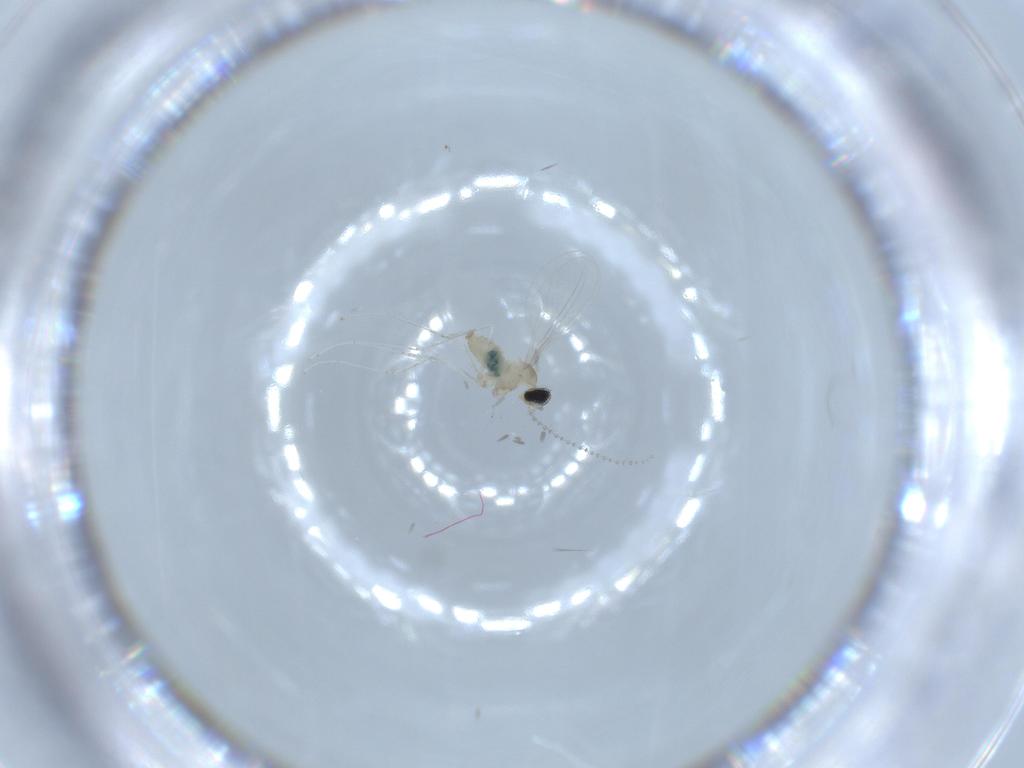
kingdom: Animalia
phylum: Arthropoda
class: Insecta
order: Diptera
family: Cecidomyiidae
